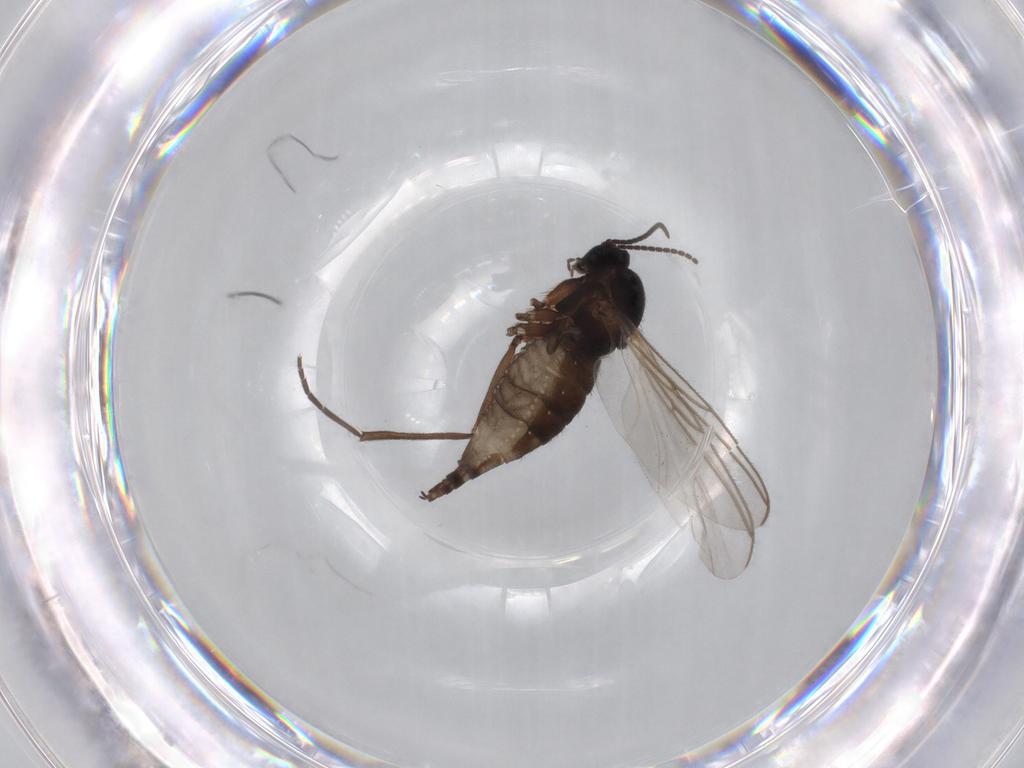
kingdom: Animalia
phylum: Arthropoda
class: Insecta
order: Diptera
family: Sciaridae
